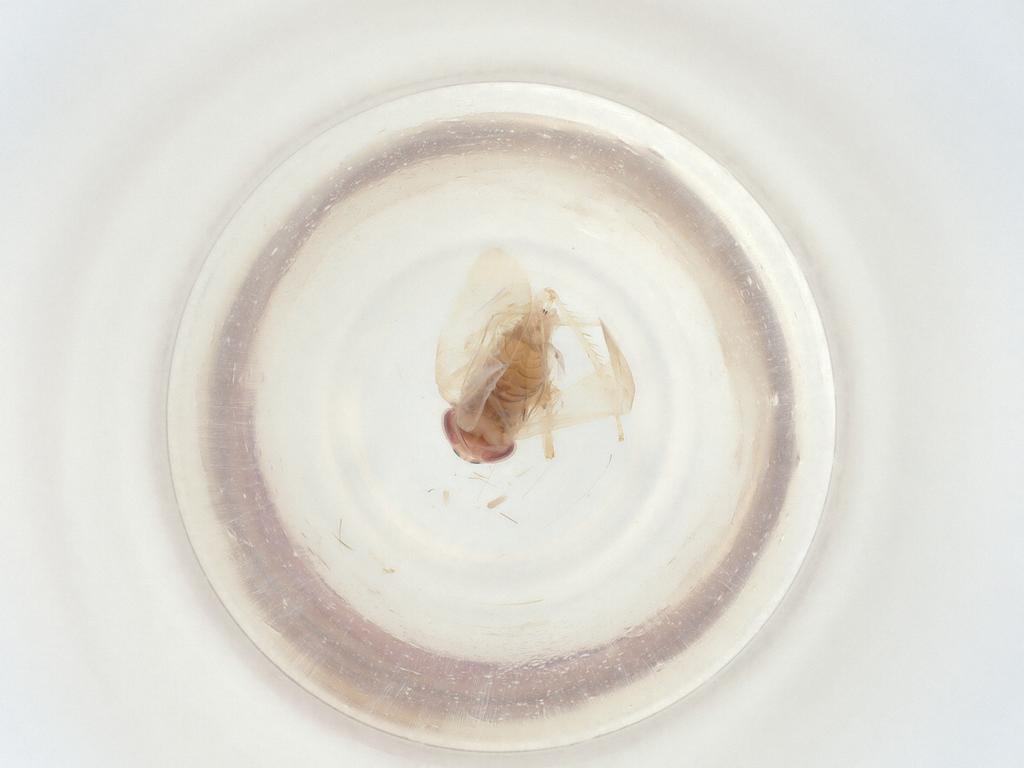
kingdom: Animalia
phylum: Arthropoda
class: Insecta
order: Hemiptera
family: Cicadellidae
